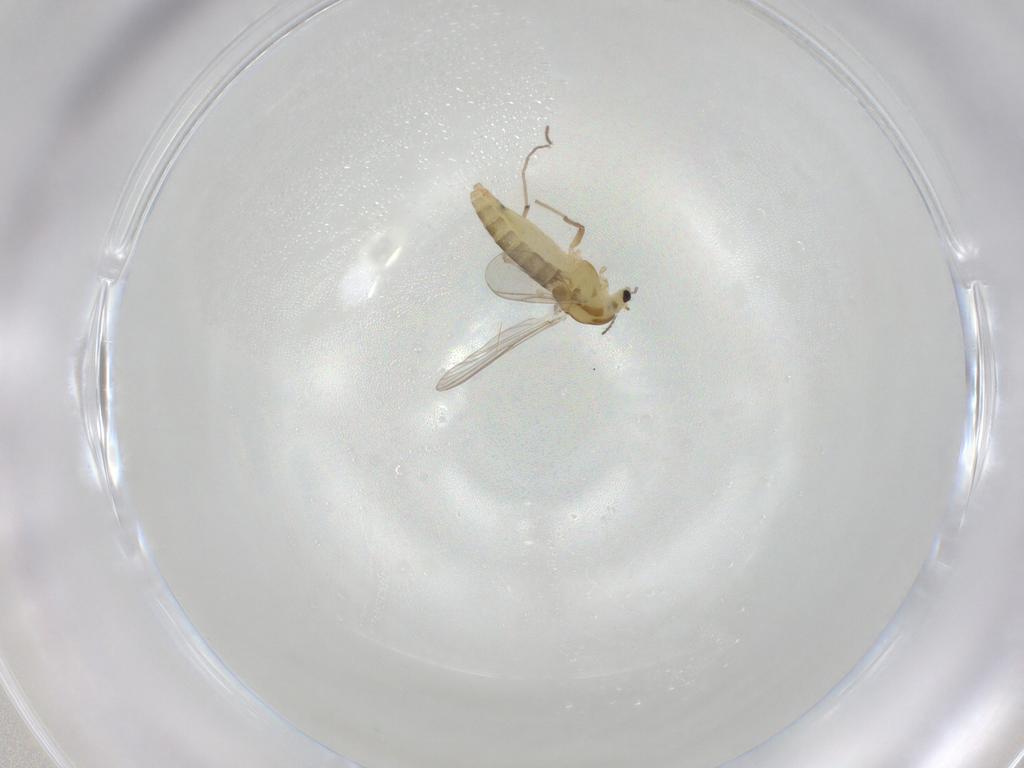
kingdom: Animalia
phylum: Arthropoda
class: Insecta
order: Diptera
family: Chironomidae
